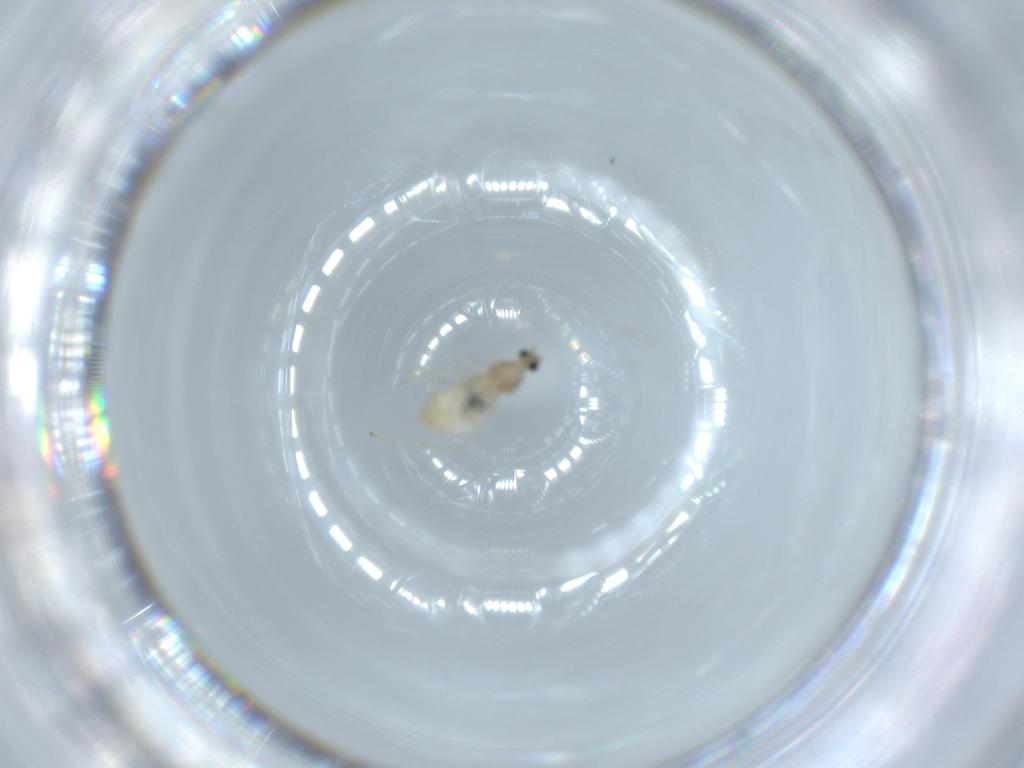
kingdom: Animalia
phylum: Arthropoda
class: Insecta
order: Diptera
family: Cecidomyiidae
